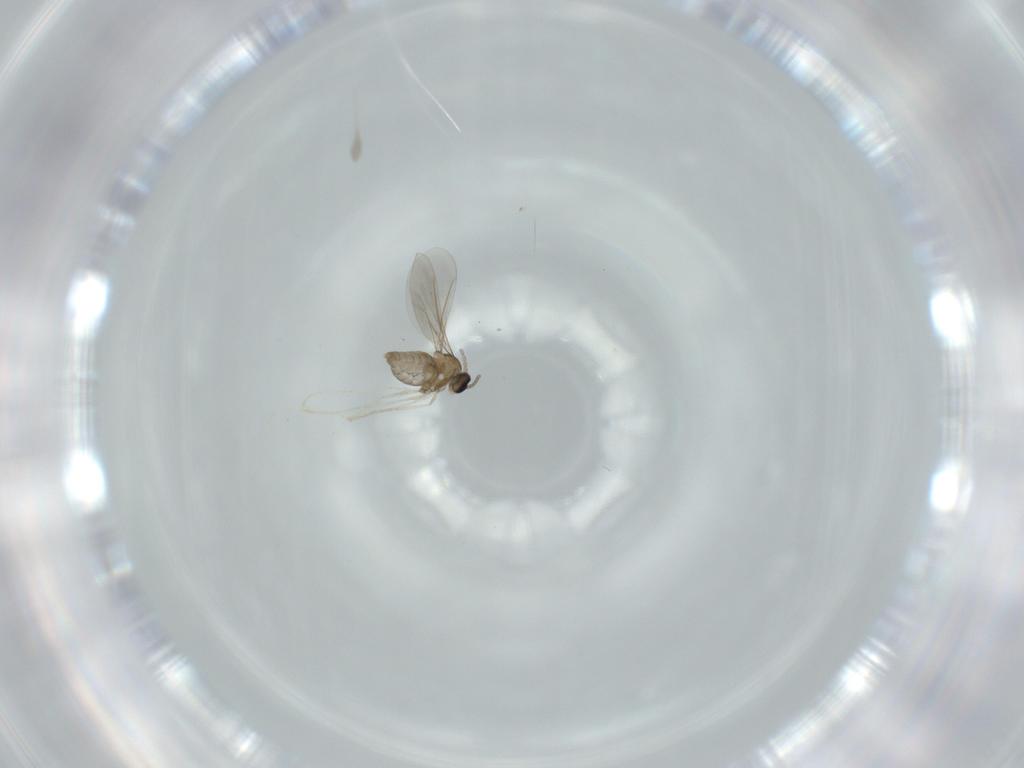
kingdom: Animalia
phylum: Arthropoda
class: Insecta
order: Diptera
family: Cecidomyiidae
